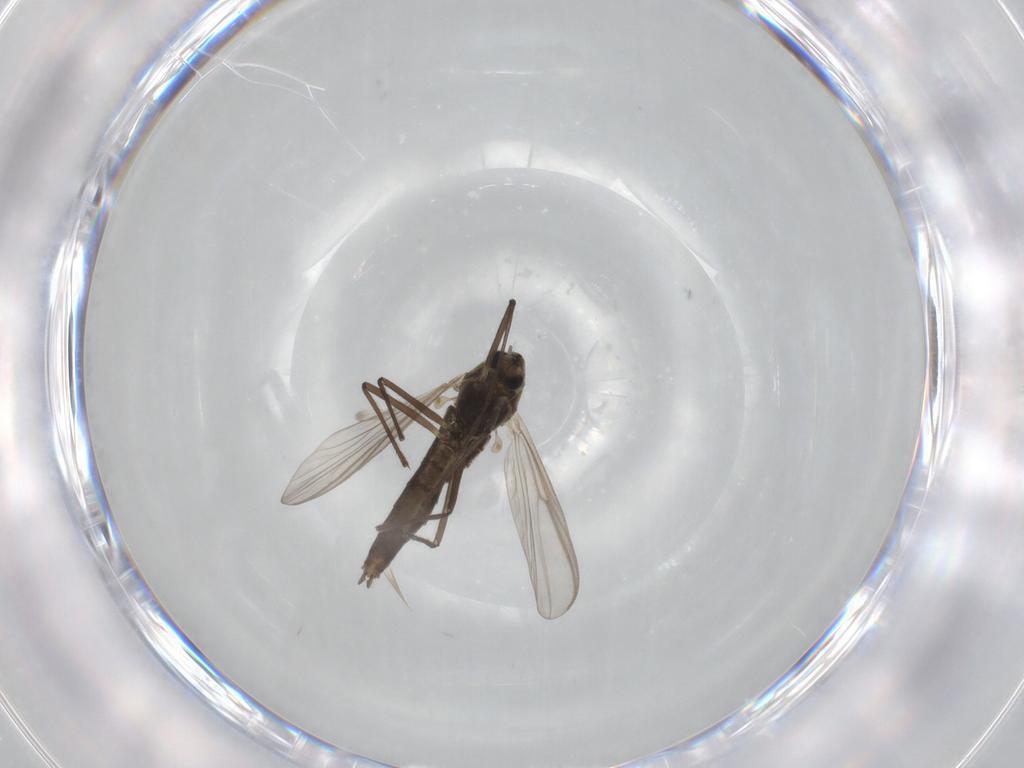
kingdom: Animalia
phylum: Arthropoda
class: Insecta
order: Diptera
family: Chironomidae
